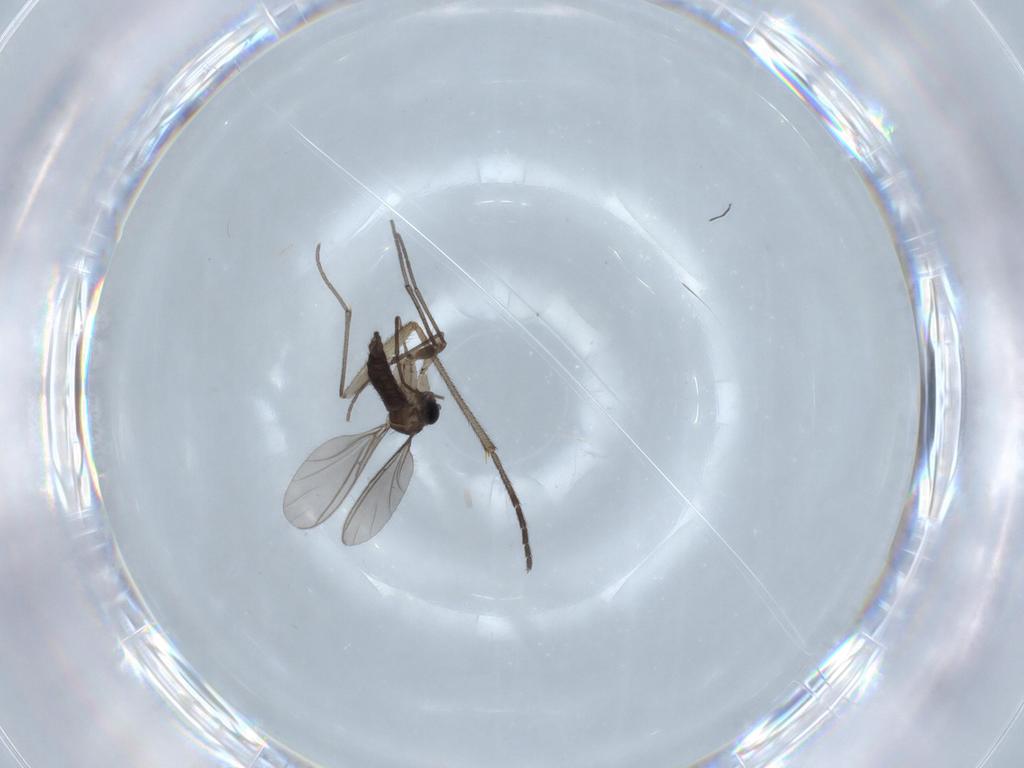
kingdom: Animalia
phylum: Arthropoda
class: Insecta
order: Diptera
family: Sciaridae
